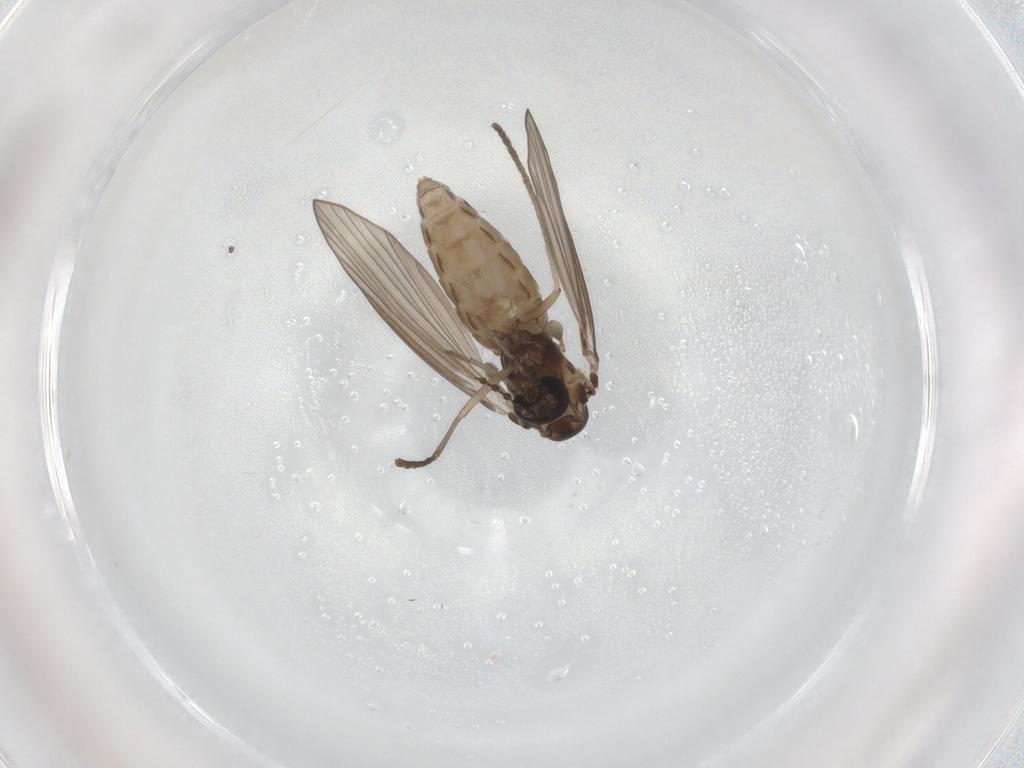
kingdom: Animalia
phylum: Arthropoda
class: Insecta
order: Diptera
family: Psychodidae
